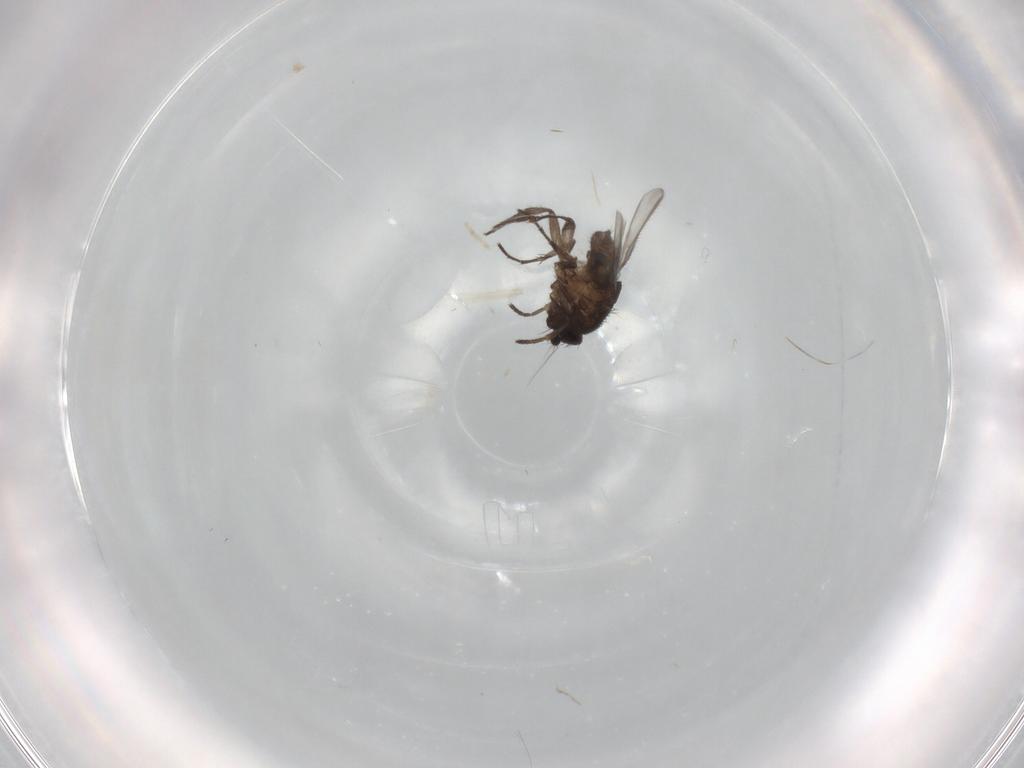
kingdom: Animalia
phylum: Arthropoda
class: Insecta
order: Diptera
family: Sphaeroceridae
